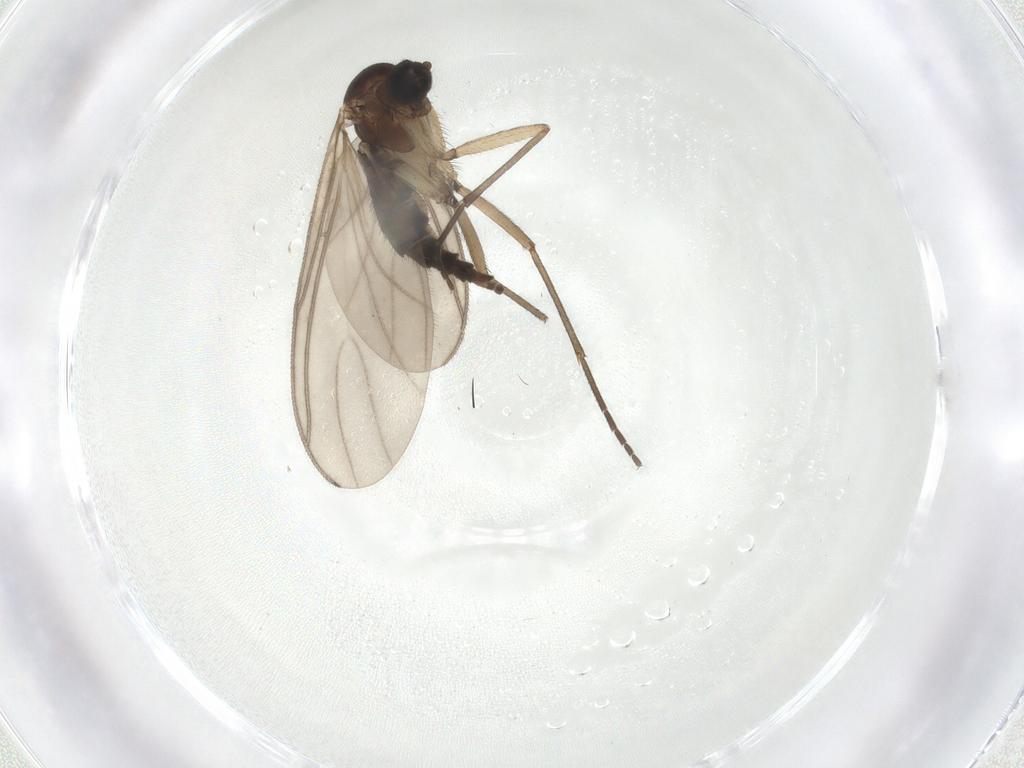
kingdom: Animalia
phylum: Arthropoda
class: Insecta
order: Diptera
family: Sciaridae
